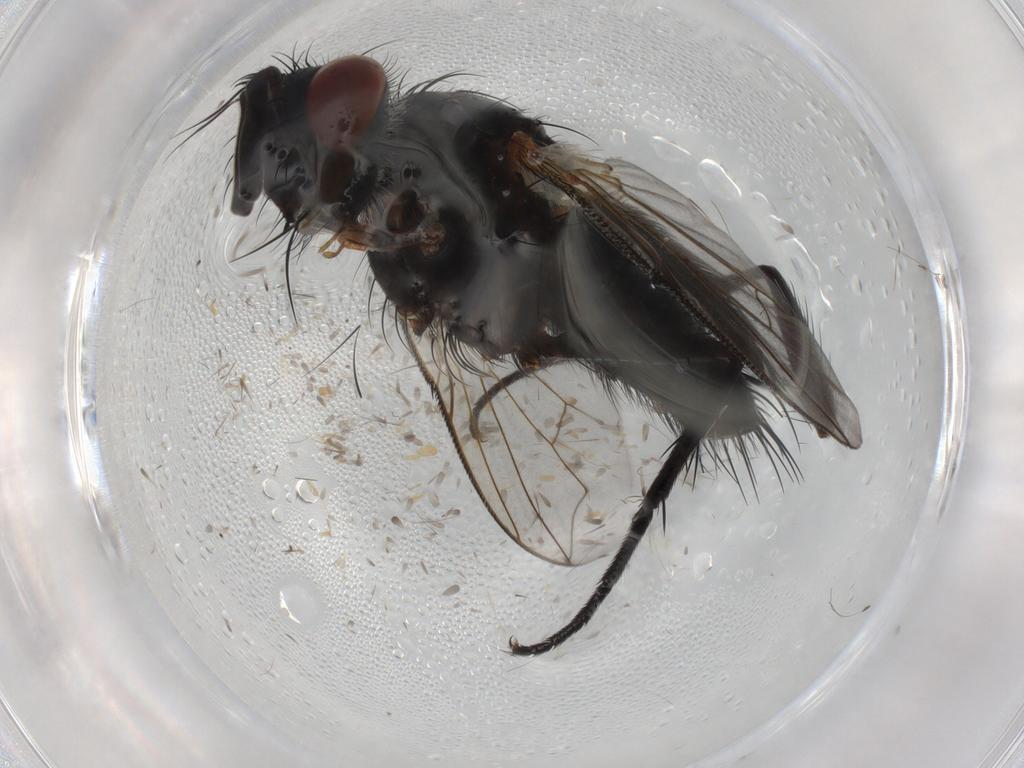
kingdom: Animalia
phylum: Arthropoda
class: Insecta
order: Diptera
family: Tachinidae
